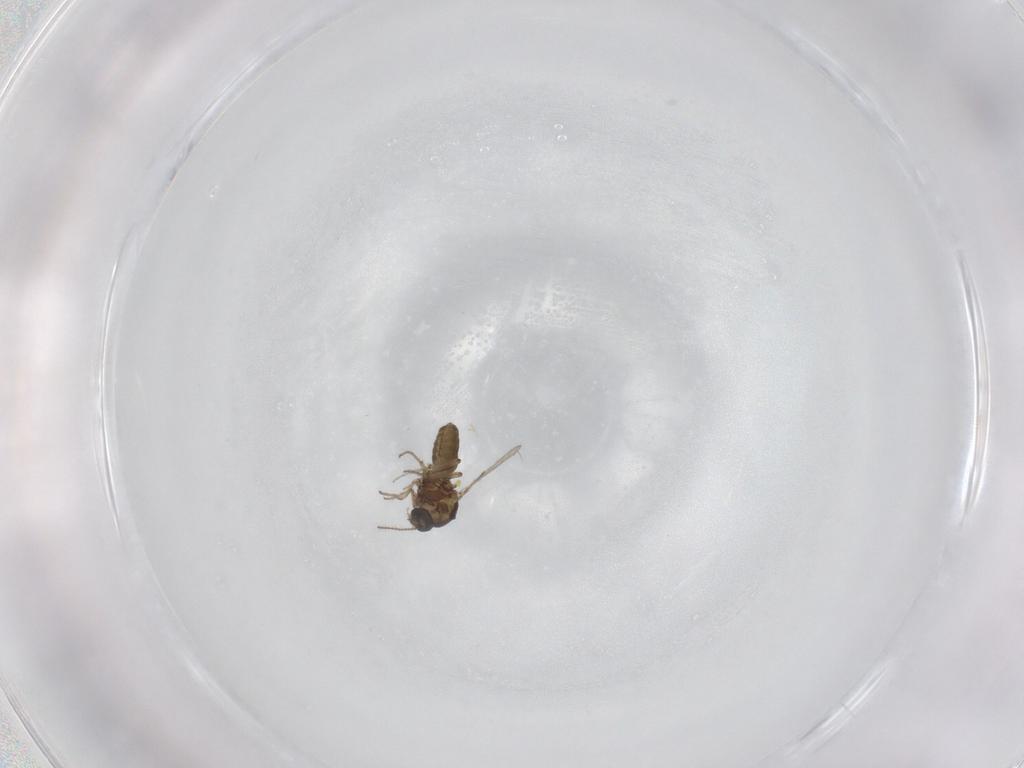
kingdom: Animalia
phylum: Arthropoda
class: Insecta
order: Diptera
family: Ceratopogonidae
